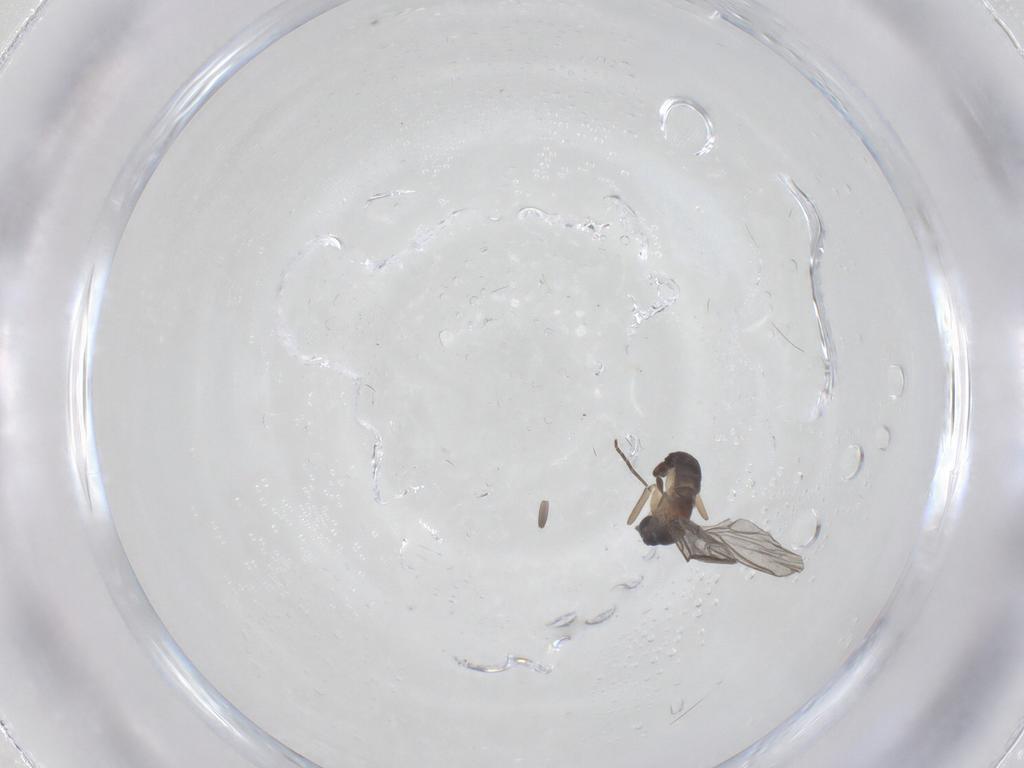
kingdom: Animalia
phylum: Arthropoda
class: Insecta
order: Diptera
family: Sciaridae
